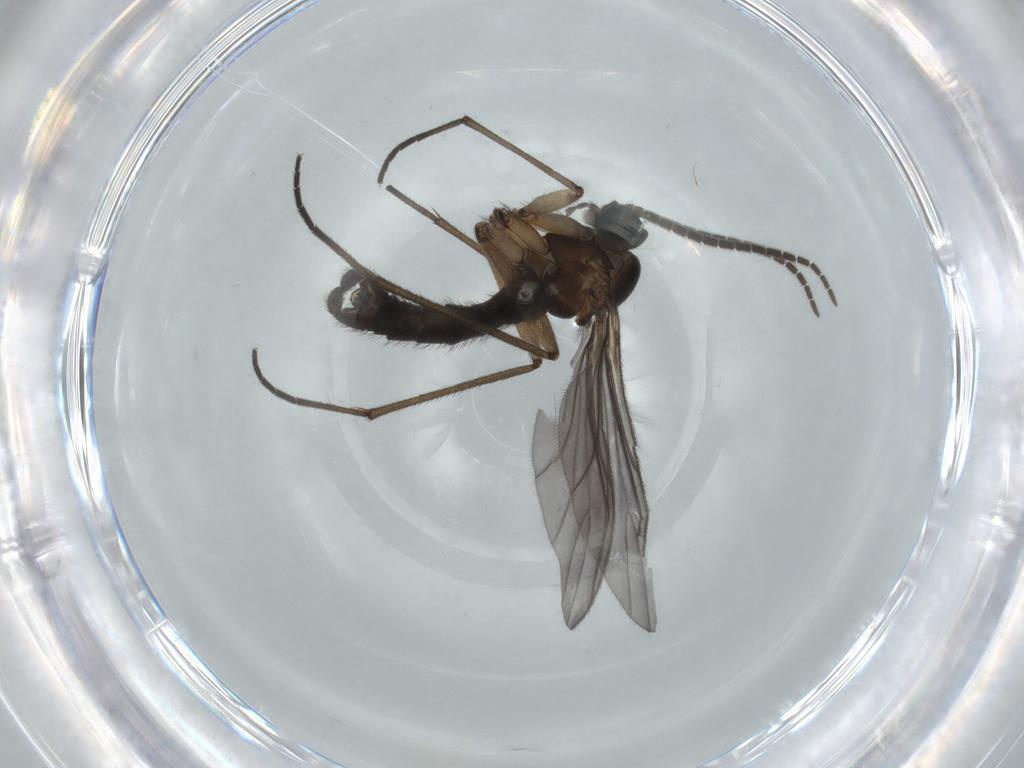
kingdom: Animalia
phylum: Arthropoda
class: Insecta
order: Diptera
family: Sciaridae
